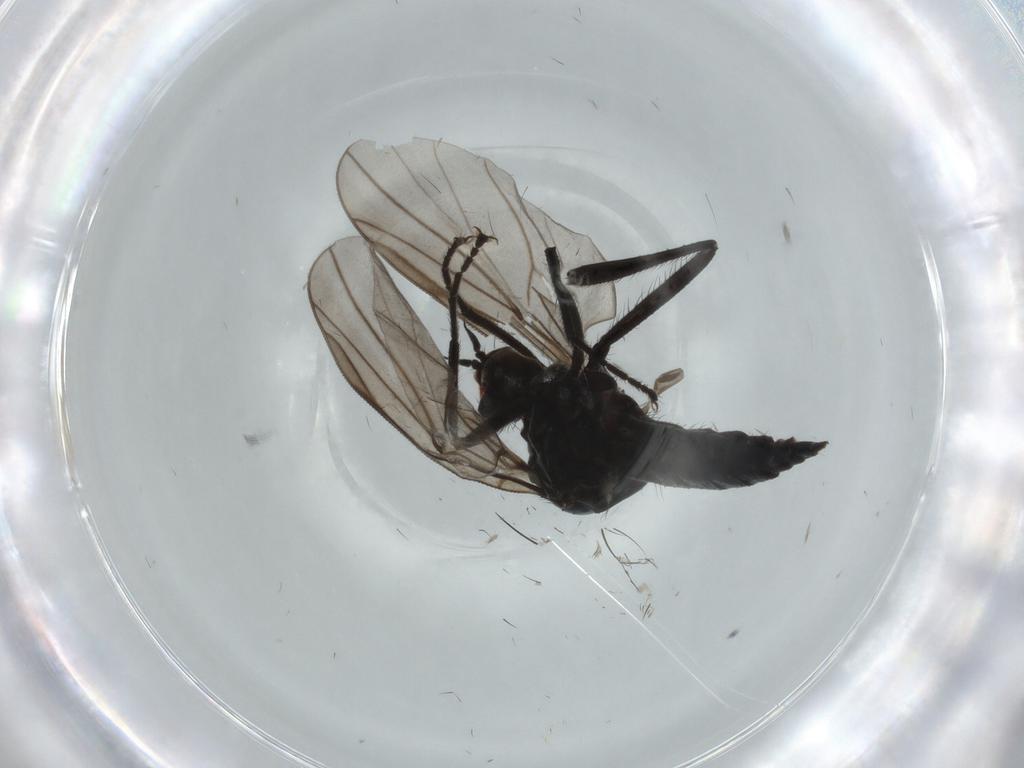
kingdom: Animalia
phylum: Arthropoda
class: Insecta
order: Diptera
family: Hybotidae
